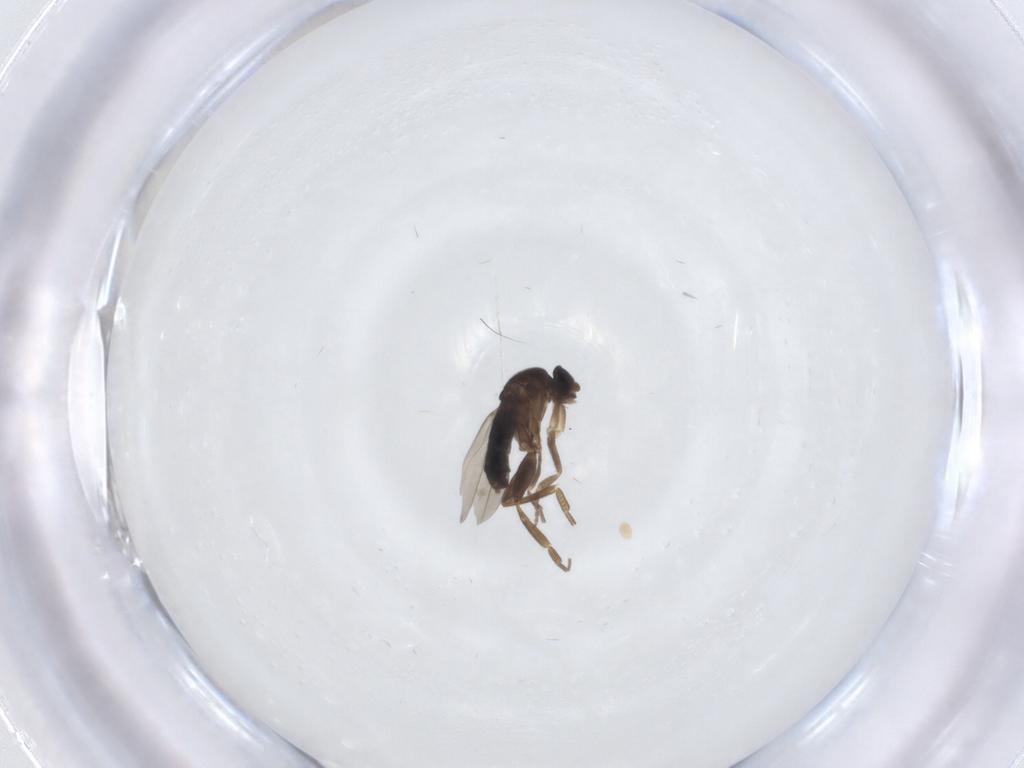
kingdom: Animalia
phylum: Arthropoda
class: Insecta
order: Diptera
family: Phoridae
